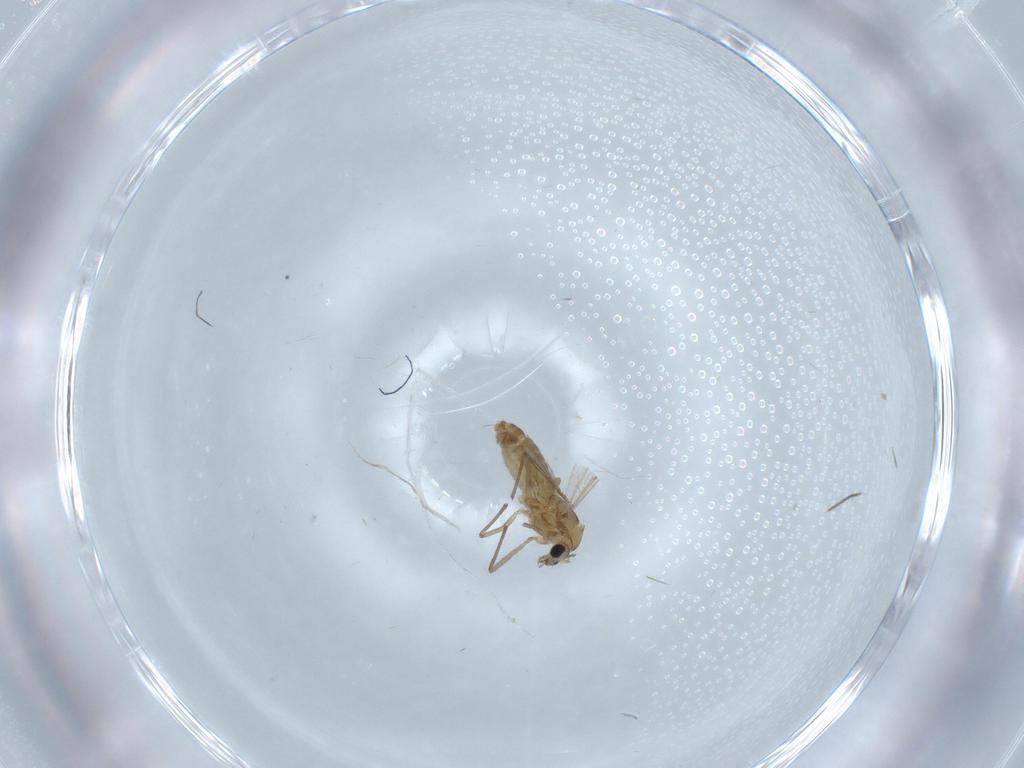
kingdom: Animalia
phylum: Arthropoda
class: Insecta
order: Diptera
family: Chironomidae
